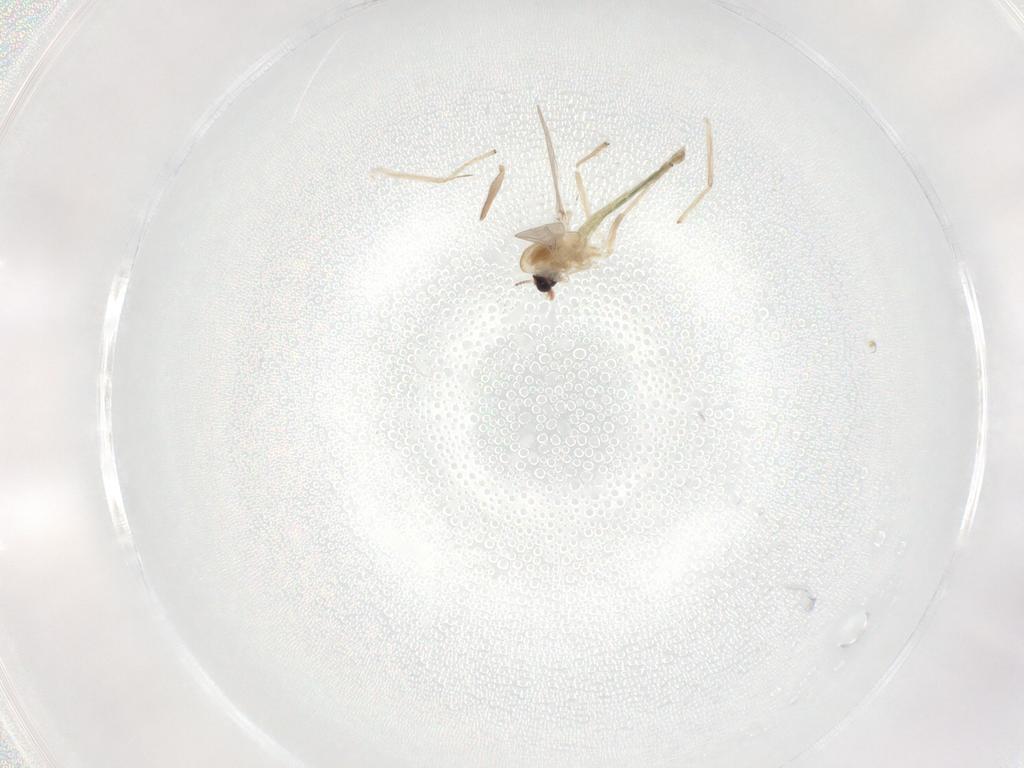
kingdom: Animalia
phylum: Arthropoda
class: Insecta
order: Diptera
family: Chironomidae
